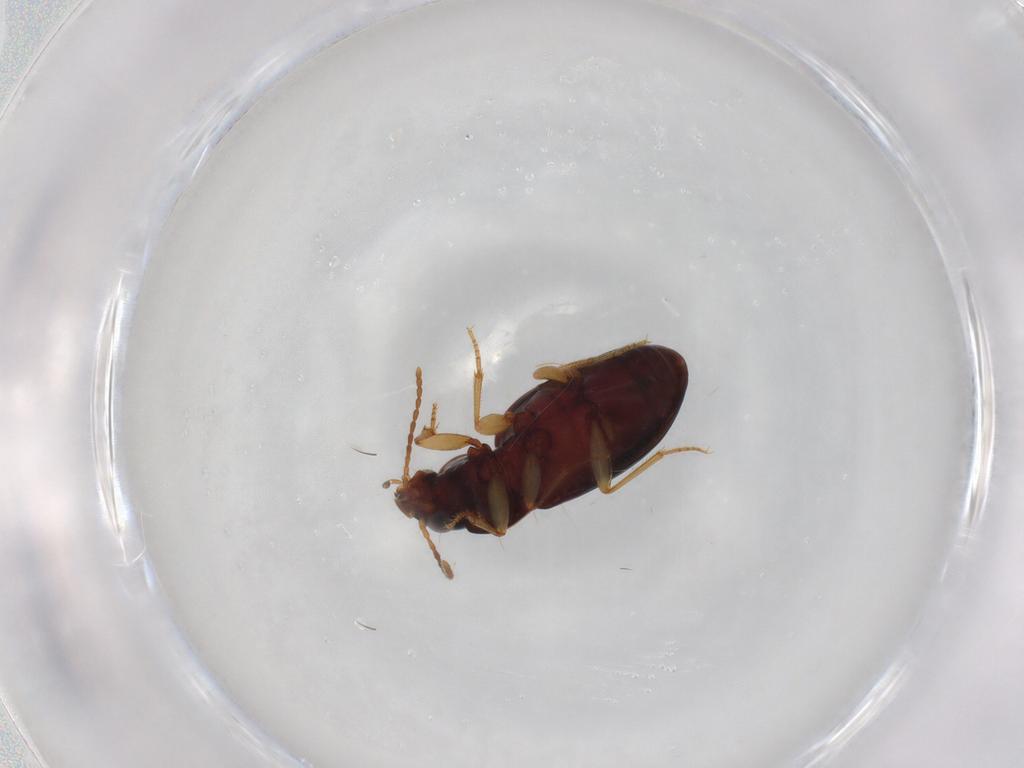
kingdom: Animalia
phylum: Arthropoda
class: Insecta
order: Coleoptera
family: Carabidae
